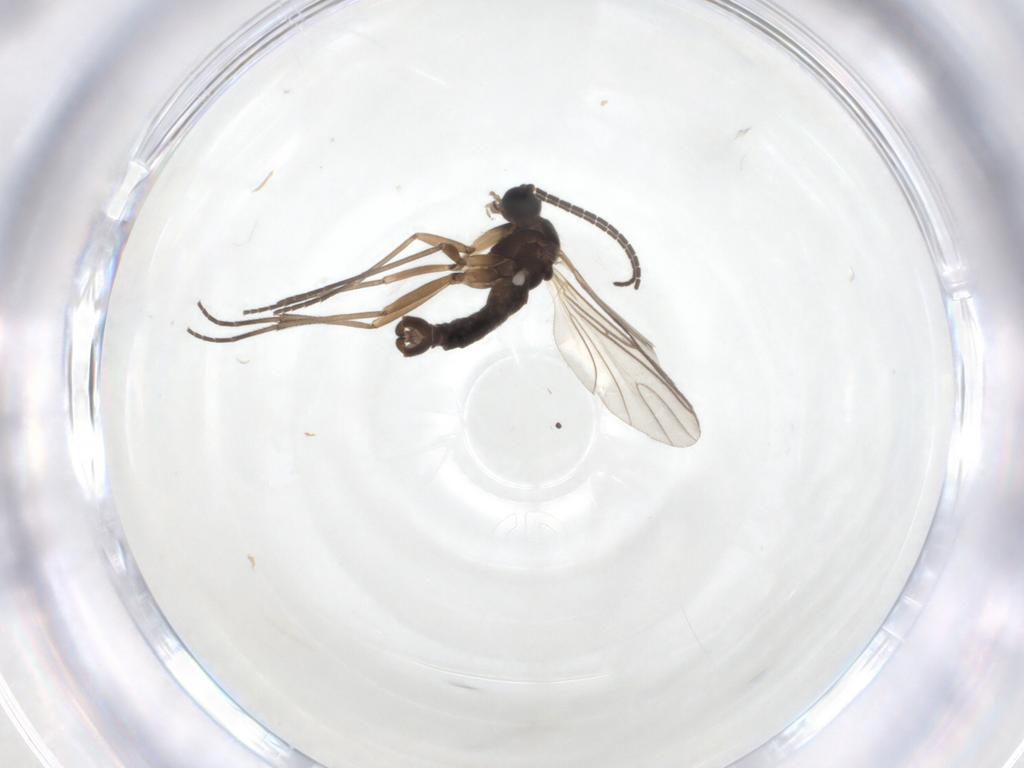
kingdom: Animalia
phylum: Arthropoda
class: Insecta
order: Diptera
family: Sciaridae
